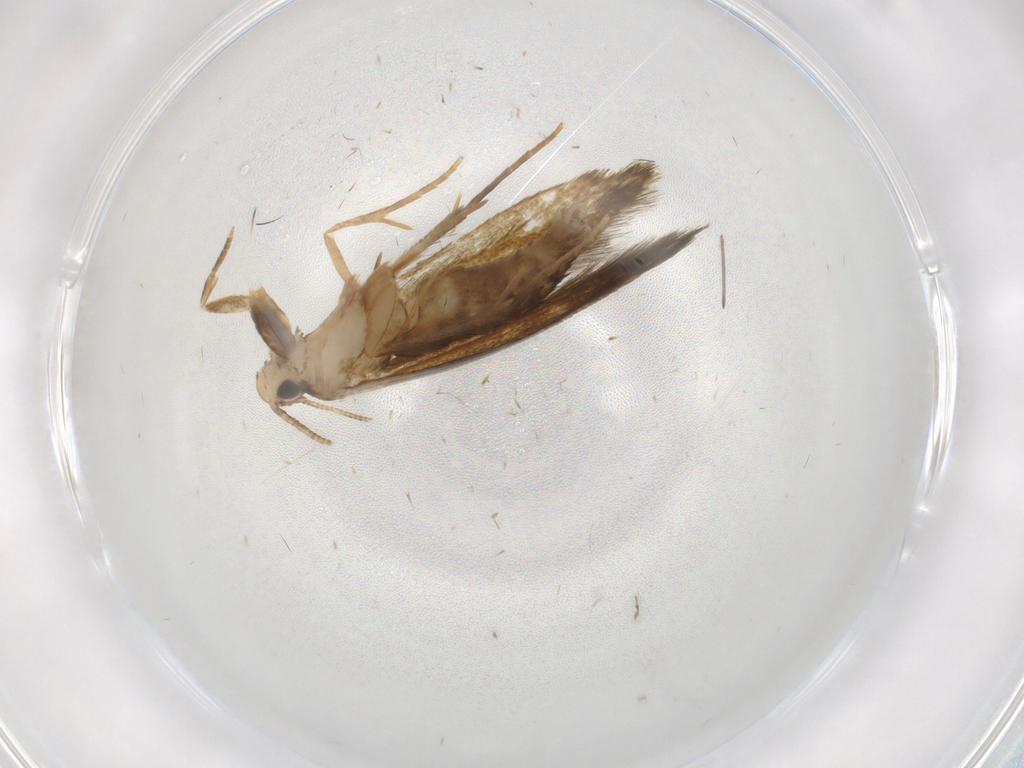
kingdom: Animalia
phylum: Arthropoda
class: Insecta
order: Lepidoptera
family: Tineidae
